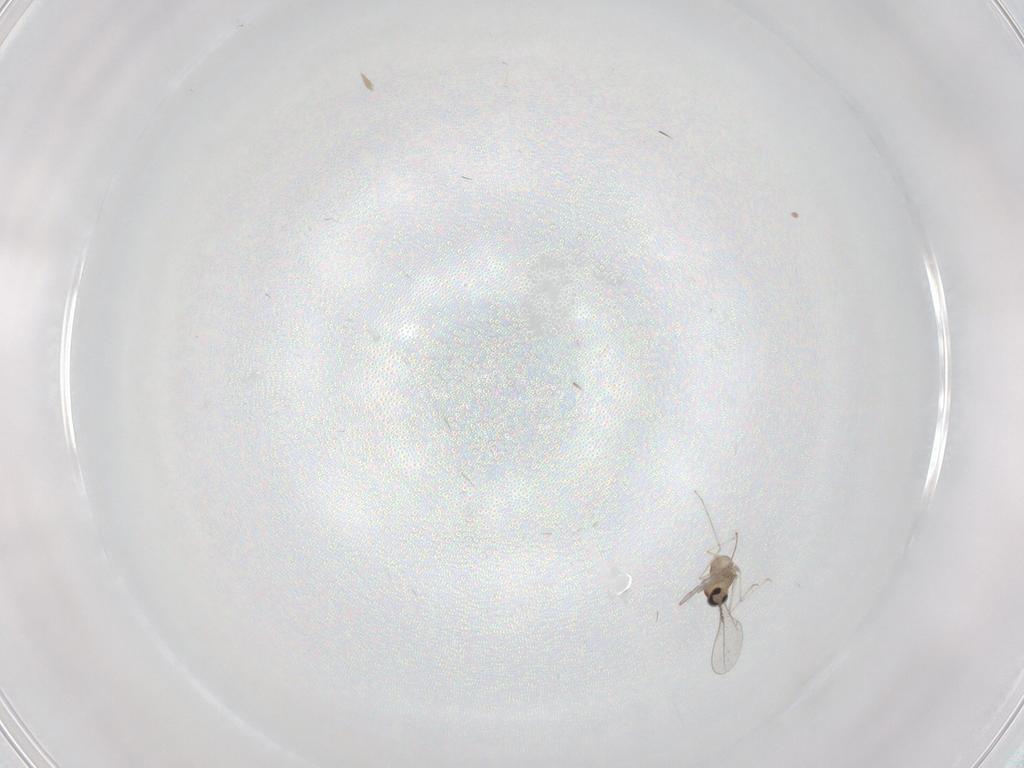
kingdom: Animalia
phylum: Arthropoda
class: Insecta
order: Diptera
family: Cecidomyiidae
